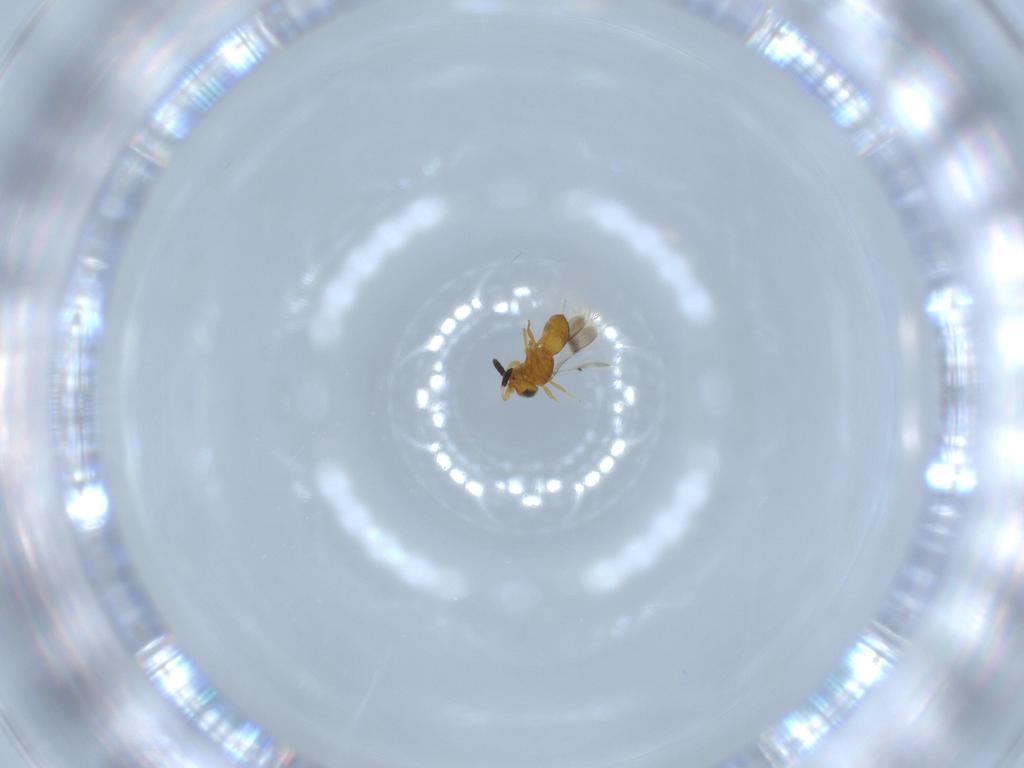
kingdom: Animalia
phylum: Arthropoda
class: Insecta
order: Hymenoptera
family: Scelionidae
